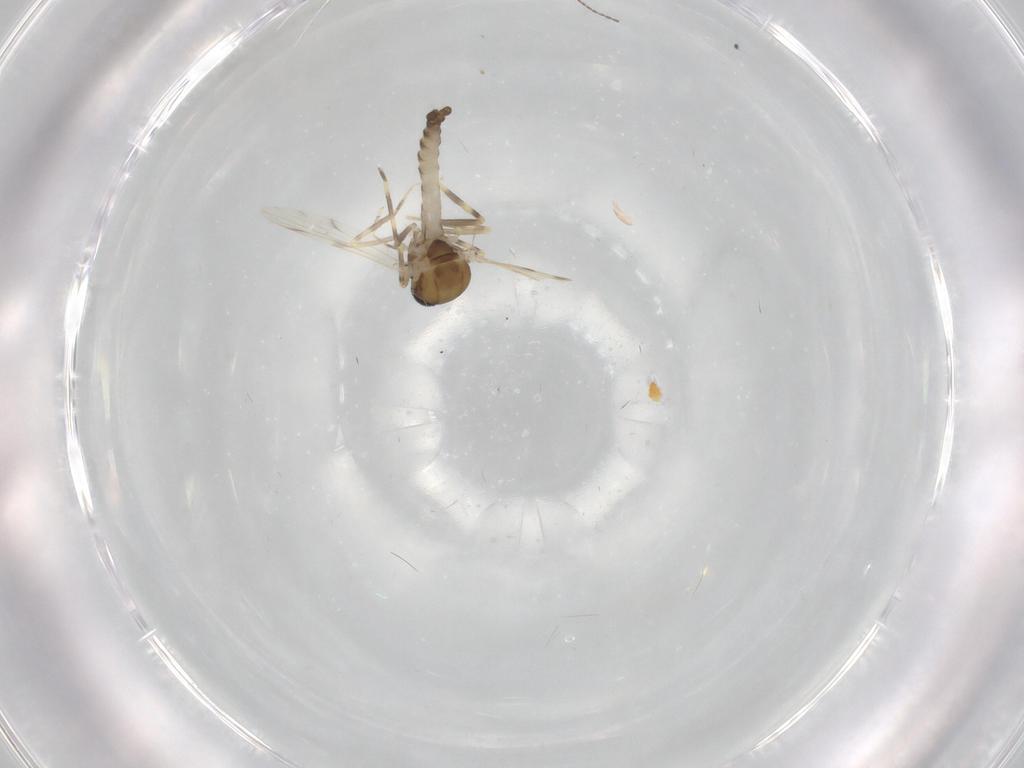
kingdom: Animalia
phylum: Arthropoda
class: Insecta
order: Diptera
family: Ceratopogonidae
